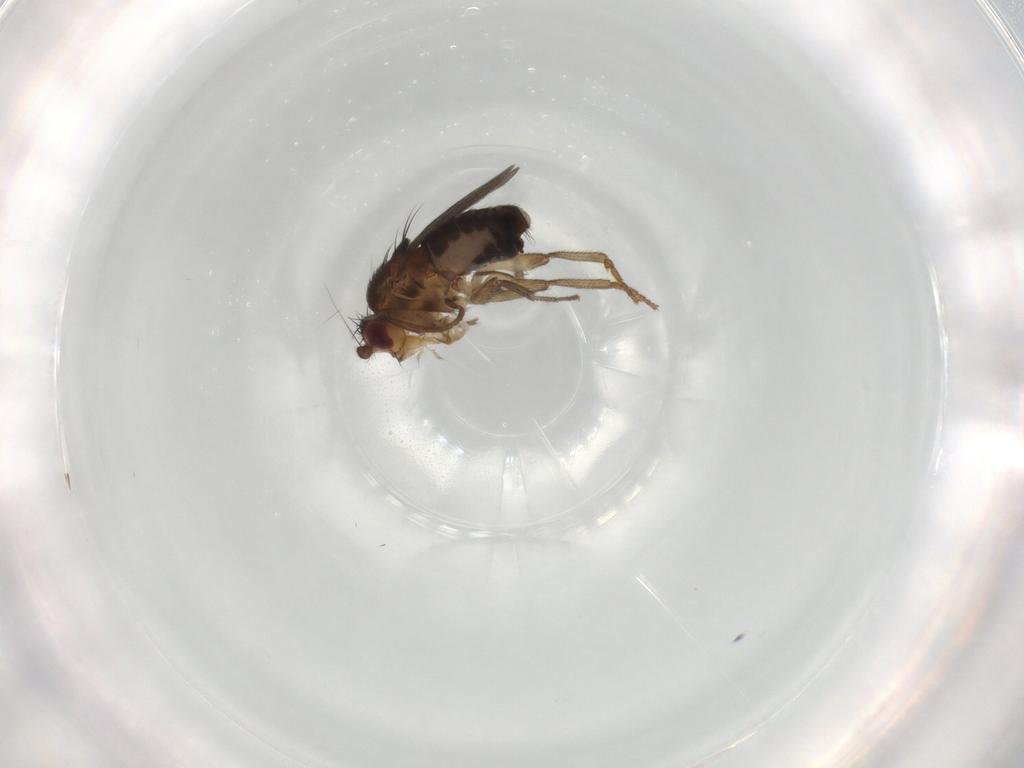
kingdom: Animalia
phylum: Arthropoda
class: Insecta
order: Diptera
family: Sphaeroceridae
